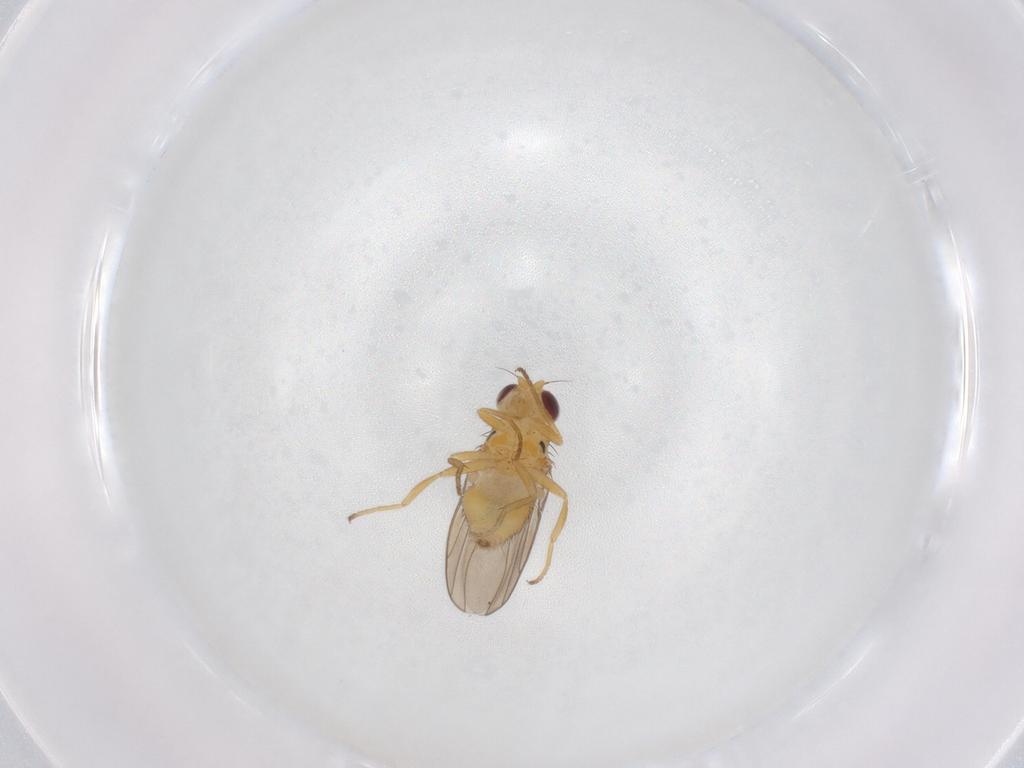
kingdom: Animalia
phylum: Arthropoda
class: Insecta
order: Diptera
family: Chloropidae
